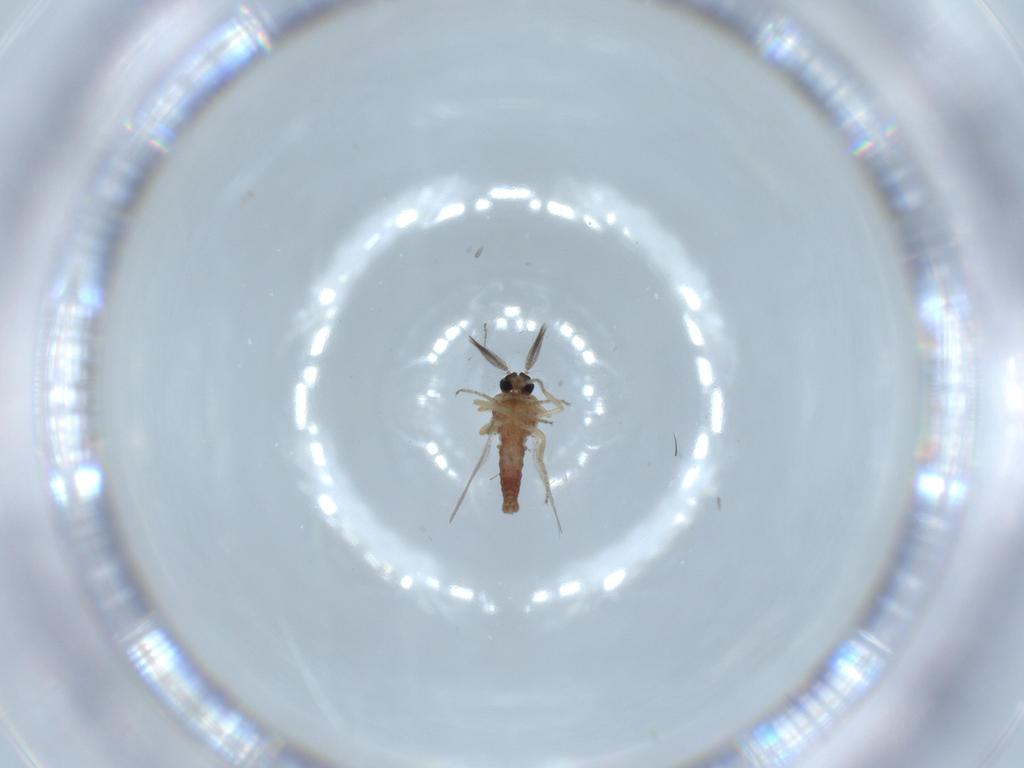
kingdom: Animalia
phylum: Arthropoda
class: Insecta
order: Diptera
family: Ceratopogonidae
